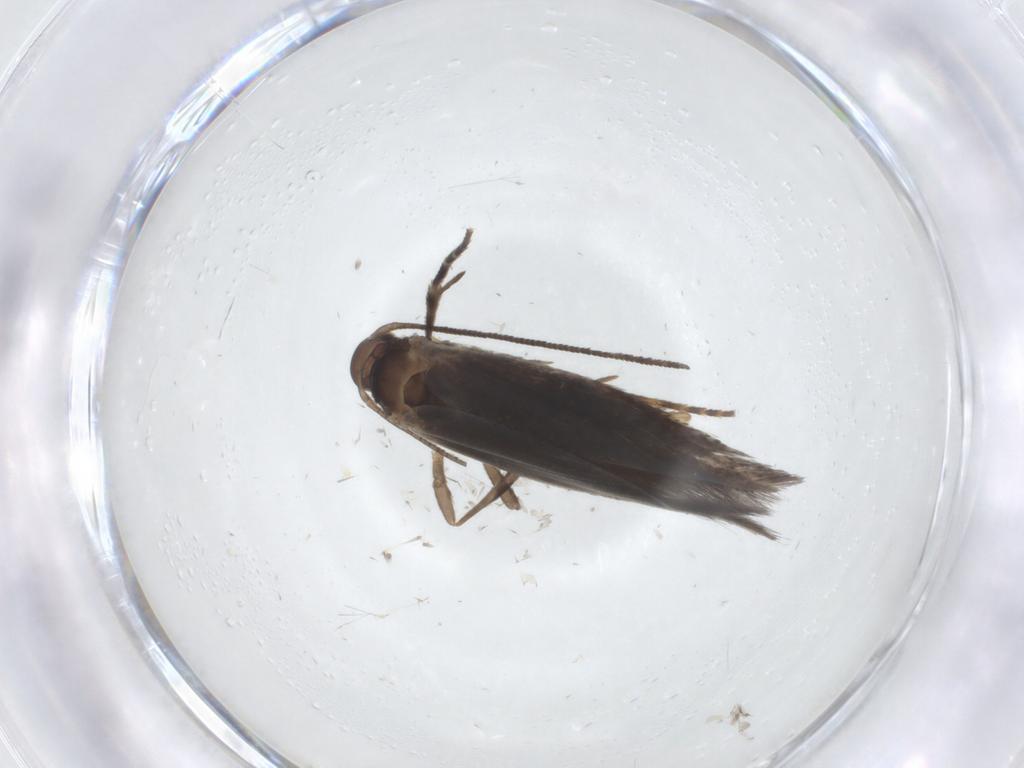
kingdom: Animalia
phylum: Arthropoda
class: Insecta
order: Lepidoptera
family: Elachistidae
